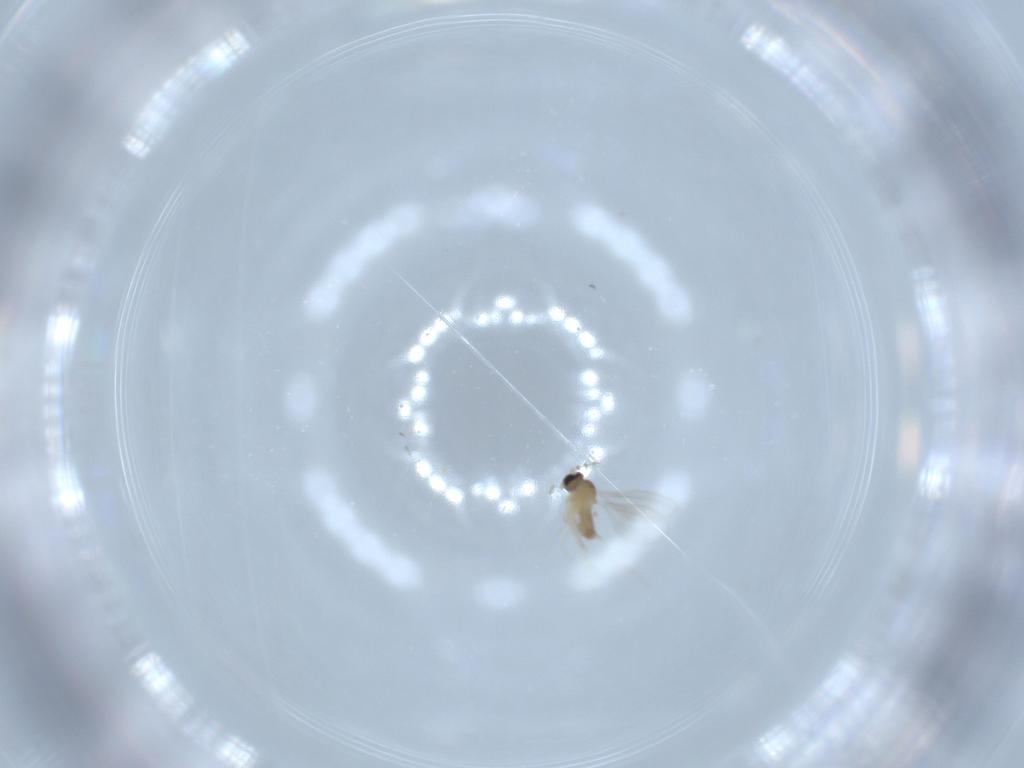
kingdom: Animalia
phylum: Arthropoda
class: Insecta
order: Diptera
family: Cecidomyiidae
